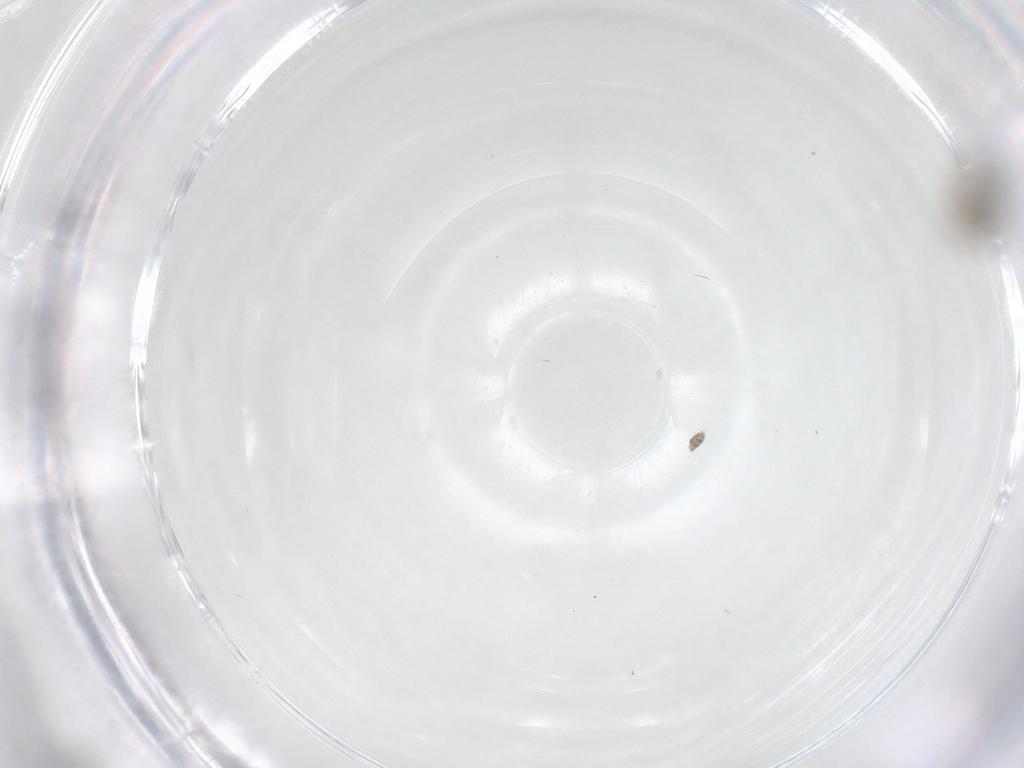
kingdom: Animalia
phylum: Arthropoda
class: Insecta
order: Diptera
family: Psychodidae
